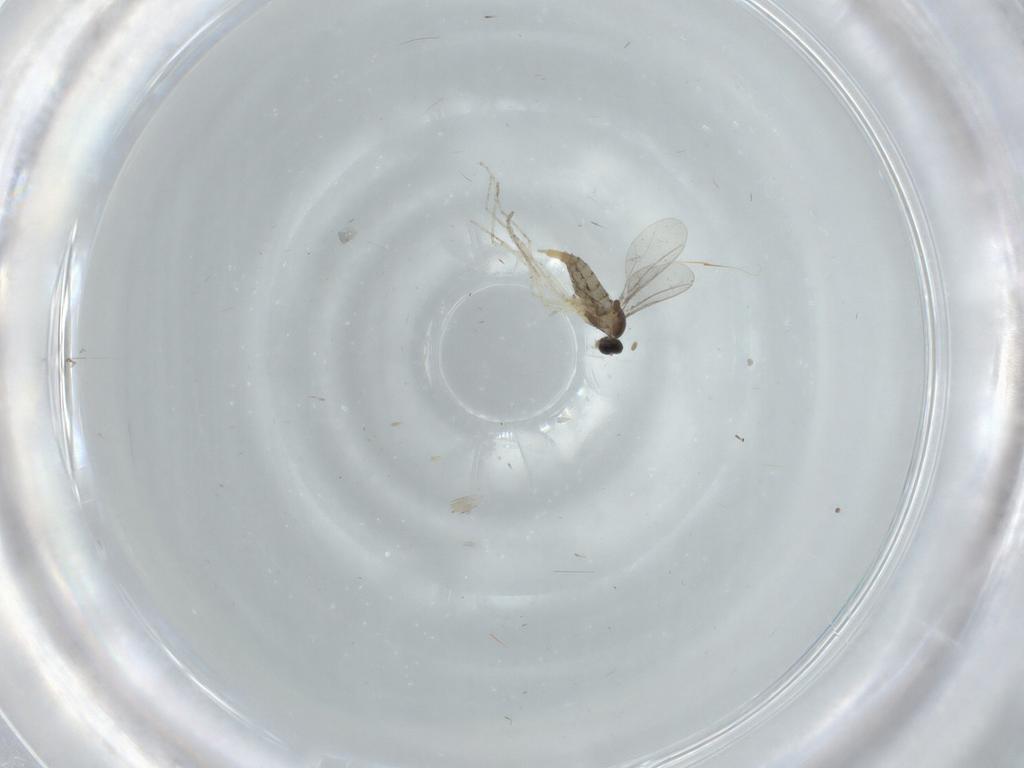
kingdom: Animalia
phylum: Arthropoda
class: Insecta
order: Diptera
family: Cecidomyiidae
